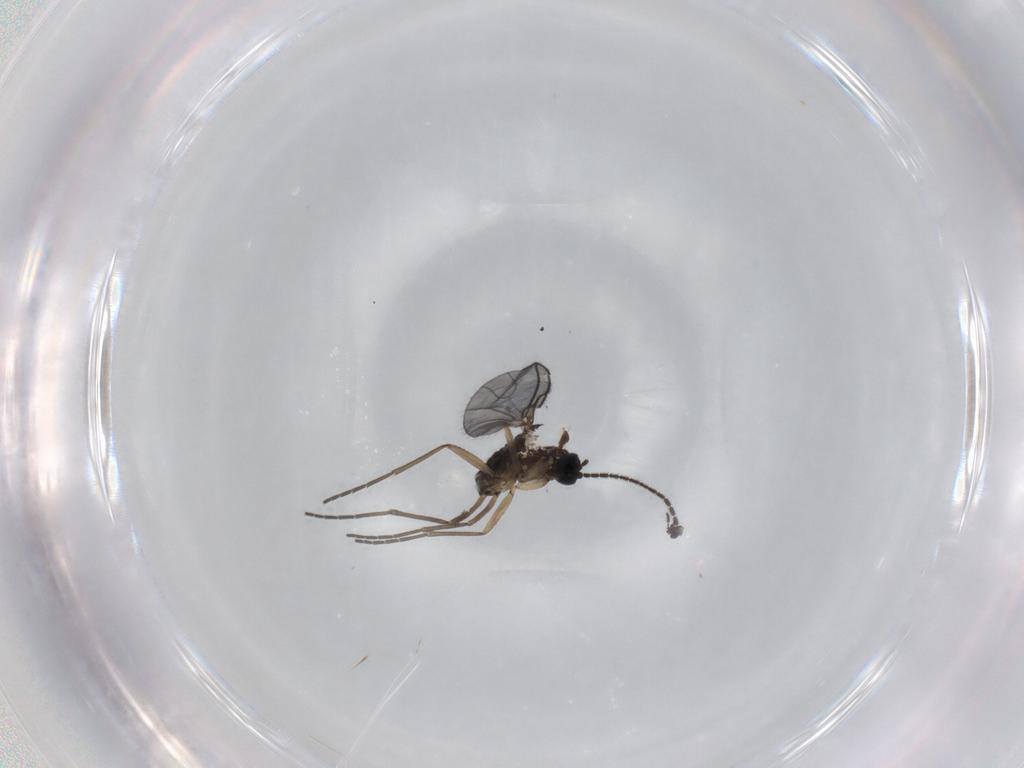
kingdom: Animalia
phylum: Arthropoda
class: Insecta
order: Diptera
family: Sciaridae
